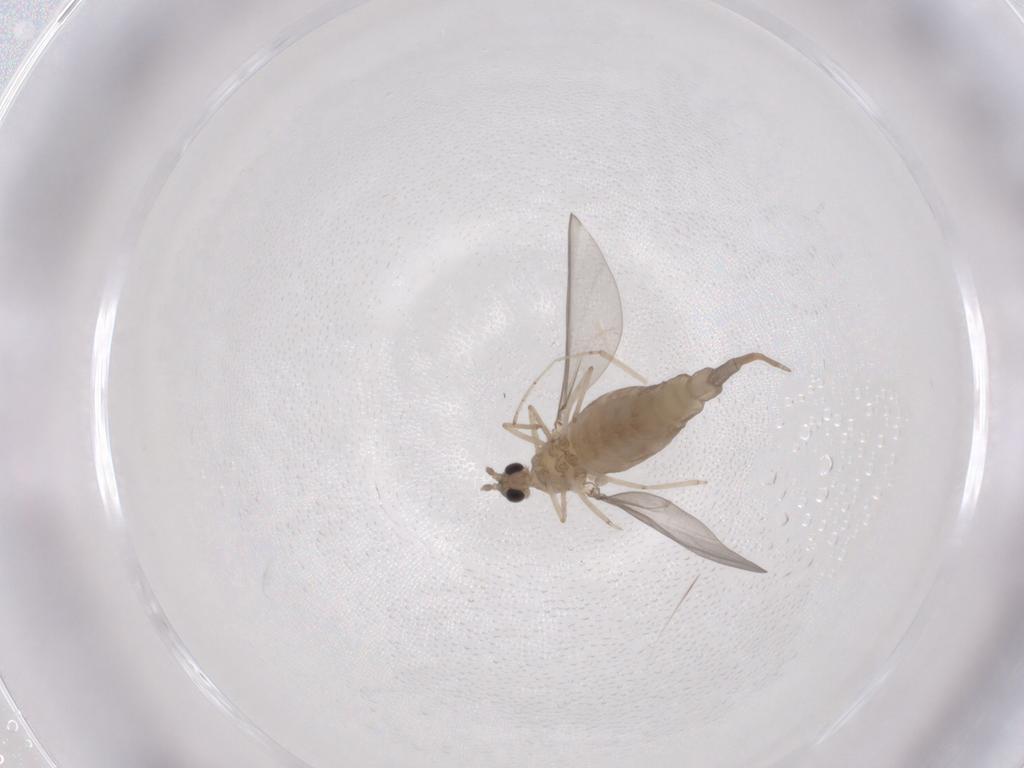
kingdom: Animalia
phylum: Arthropoda
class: Insecta
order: Diptera
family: Cecidomyiidae
